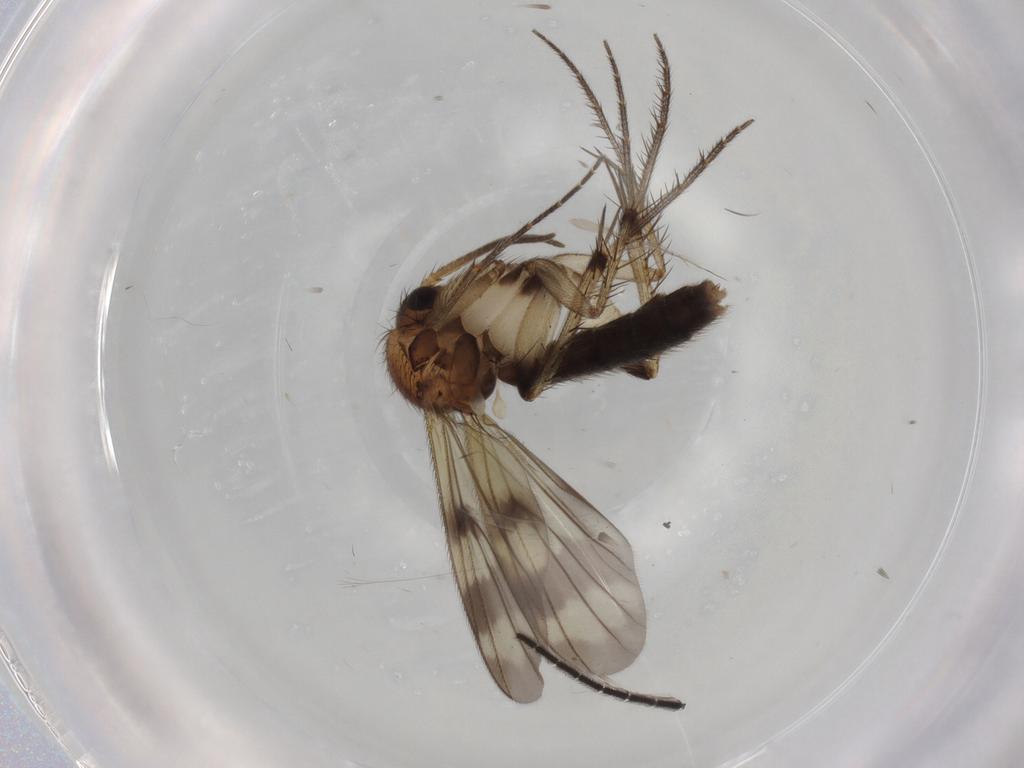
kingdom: Animalia
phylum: Arthropoda
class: Insecta
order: Diptera
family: Mycetophilidae
